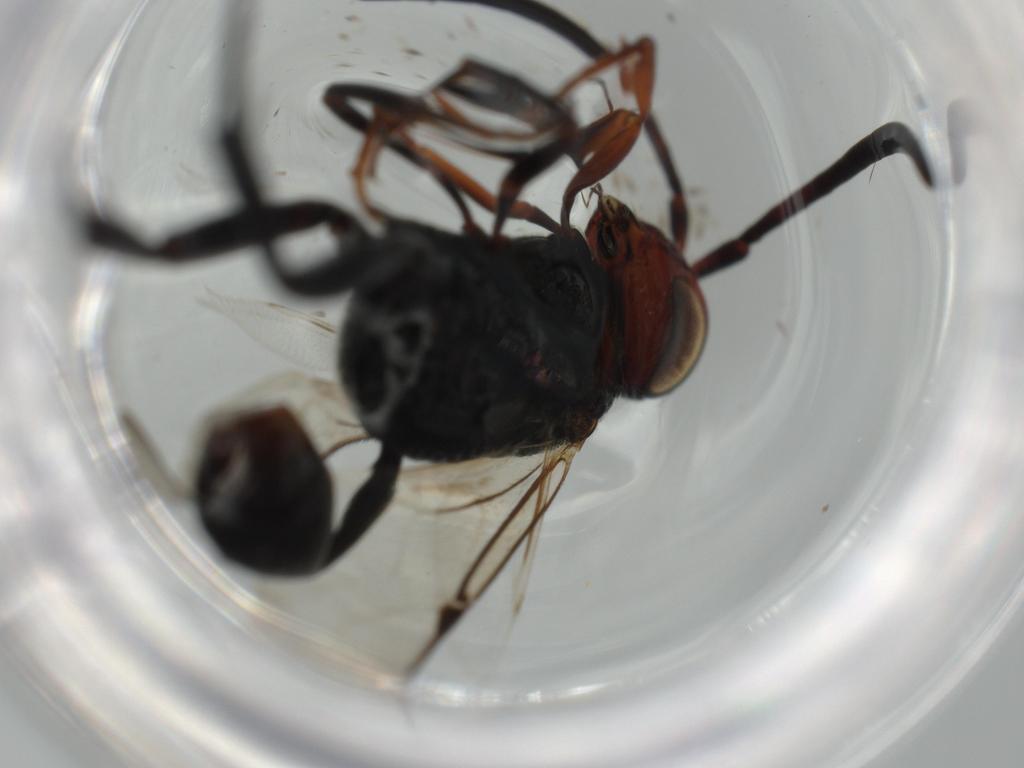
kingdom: Animalia
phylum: Arthropoda
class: Insecta
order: Hymenoptera
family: Evaniidae
